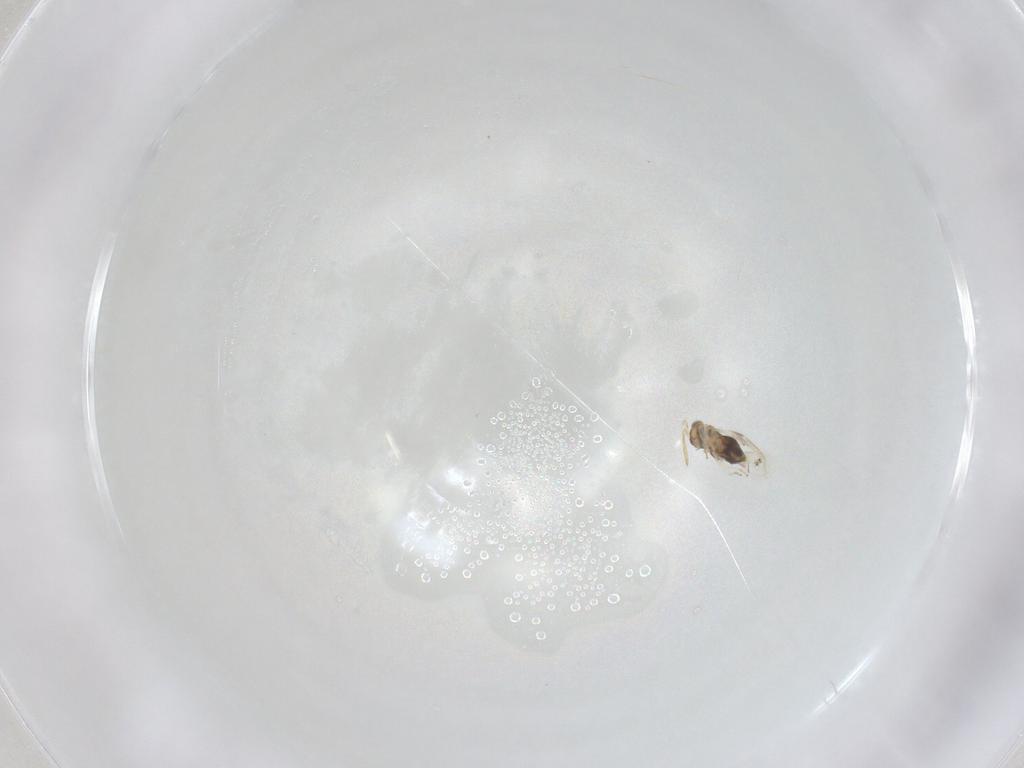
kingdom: Animalia
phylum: Arthropoda
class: Insecta
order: Hymenoptera
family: Aphelinidae
